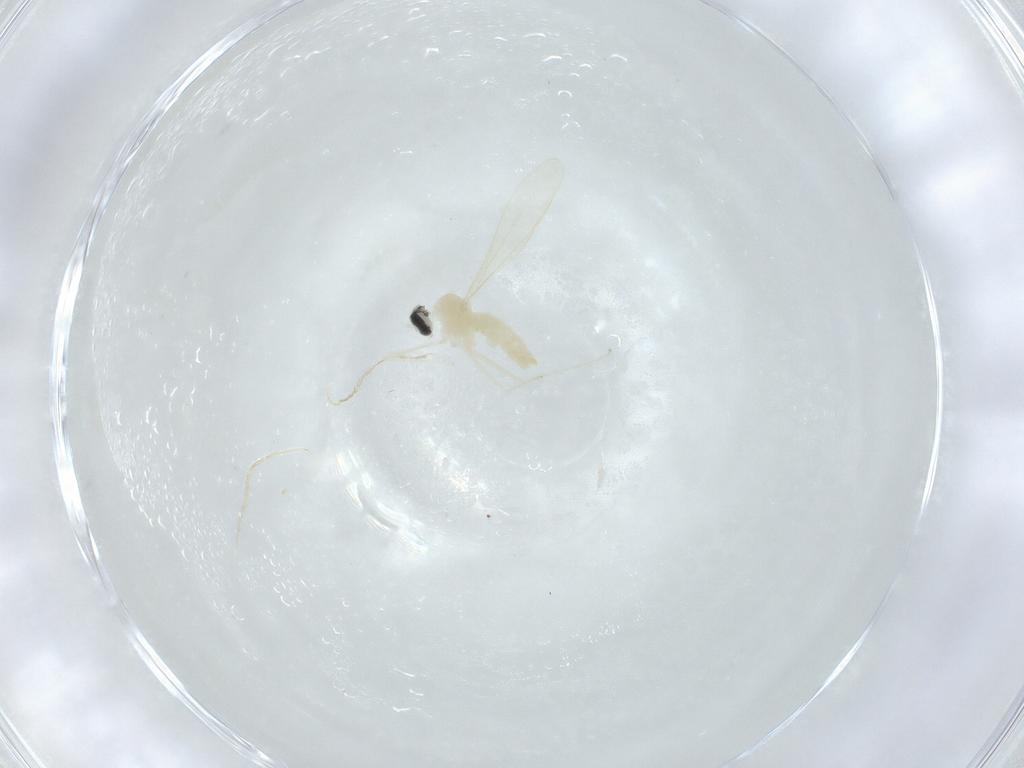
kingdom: Animalia
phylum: Arthropoda
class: Insecta
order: Diptera
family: Cecidomyiidae
